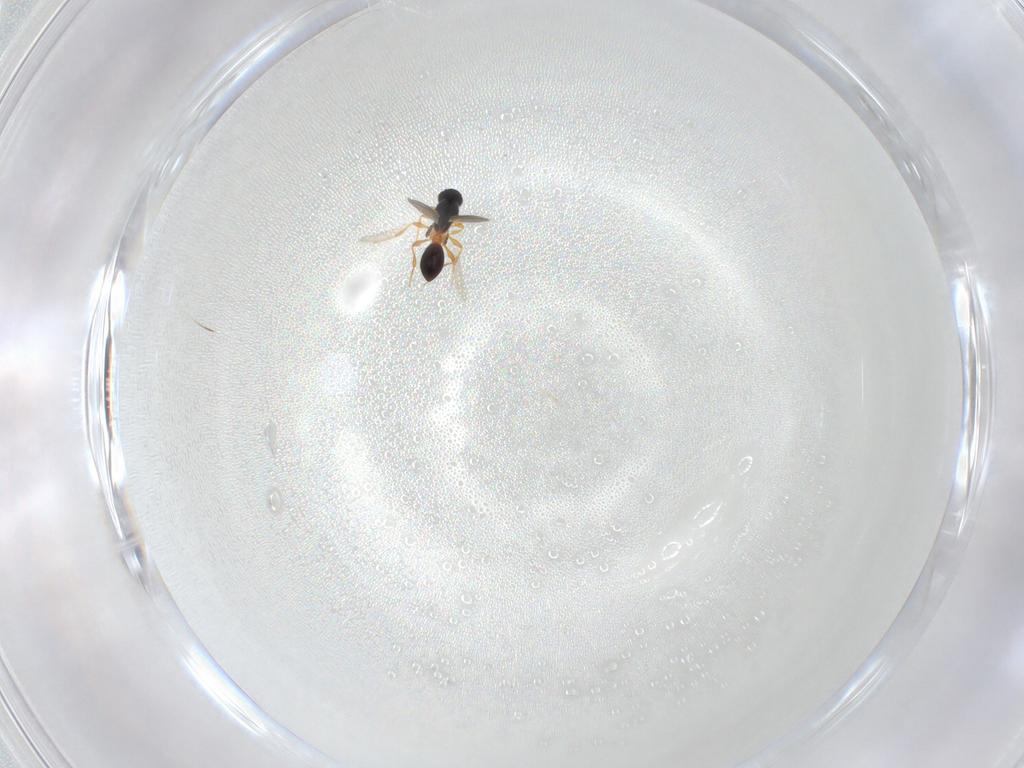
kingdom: Animalia
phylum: Arthropoda
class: Insecta
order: Hymenoptera
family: Platygastridae
